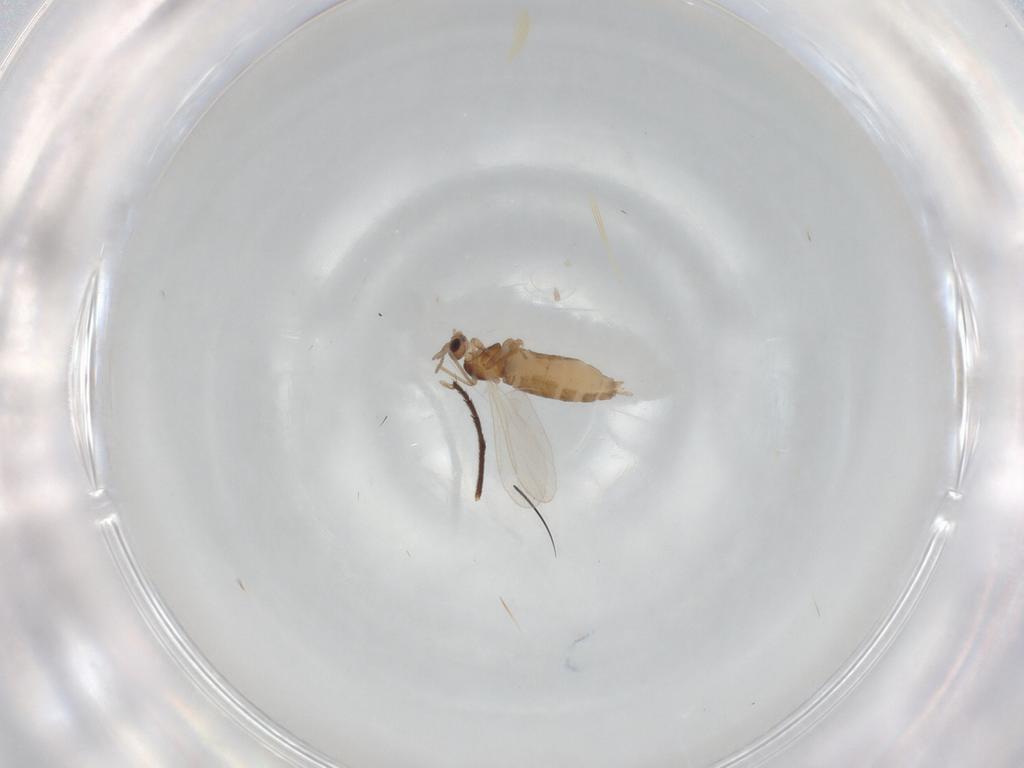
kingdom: Animalia
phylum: Arthropoda
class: Insecta
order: Diptera
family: Cecidomyiidae
